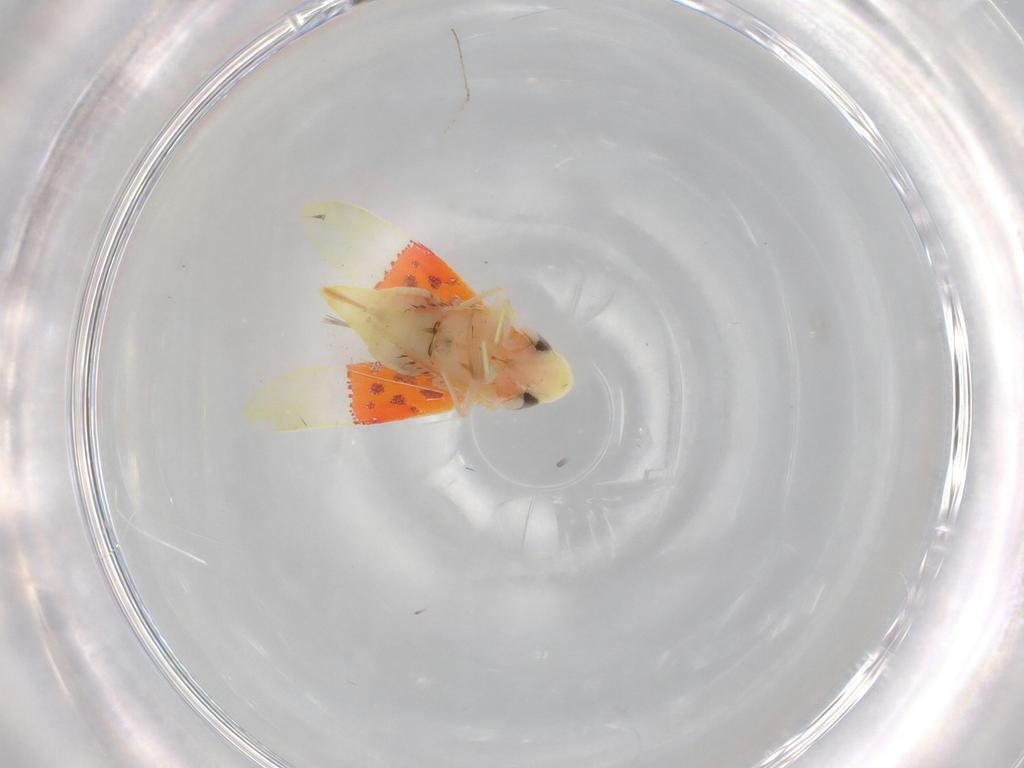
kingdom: Animalia
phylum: Arthropoda
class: Insecta
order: Hemiptera
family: Cicadellidae
